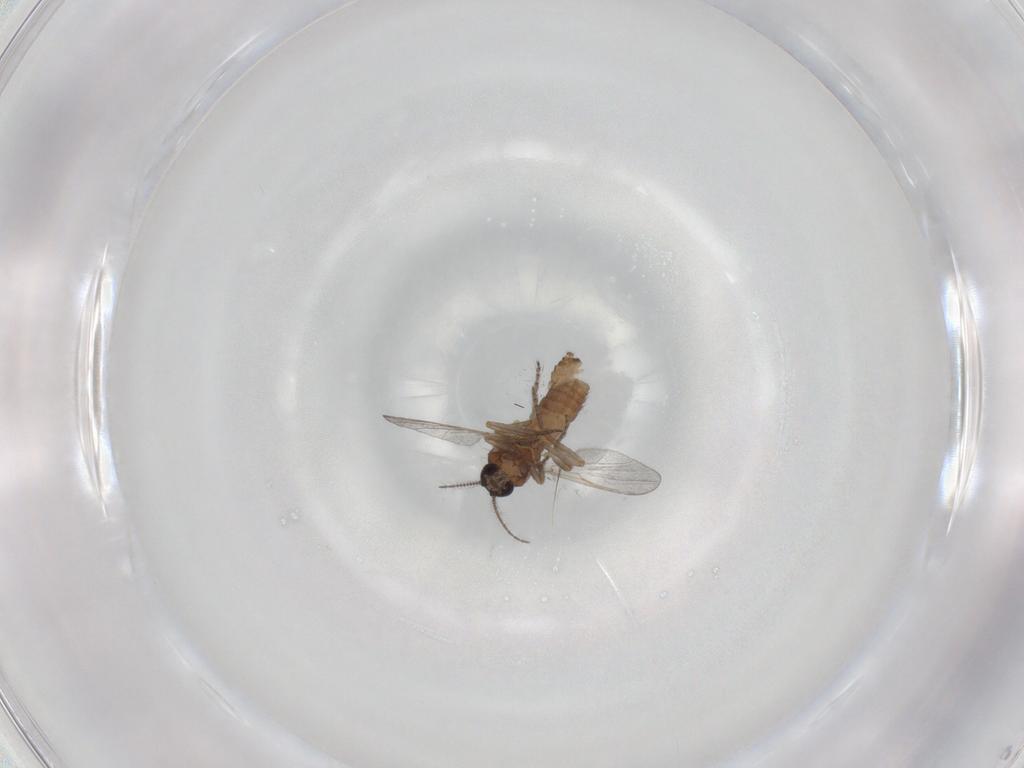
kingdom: Animalia
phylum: Arthropoda
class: Insecta
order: Diptera
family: Ceratopogonidae
